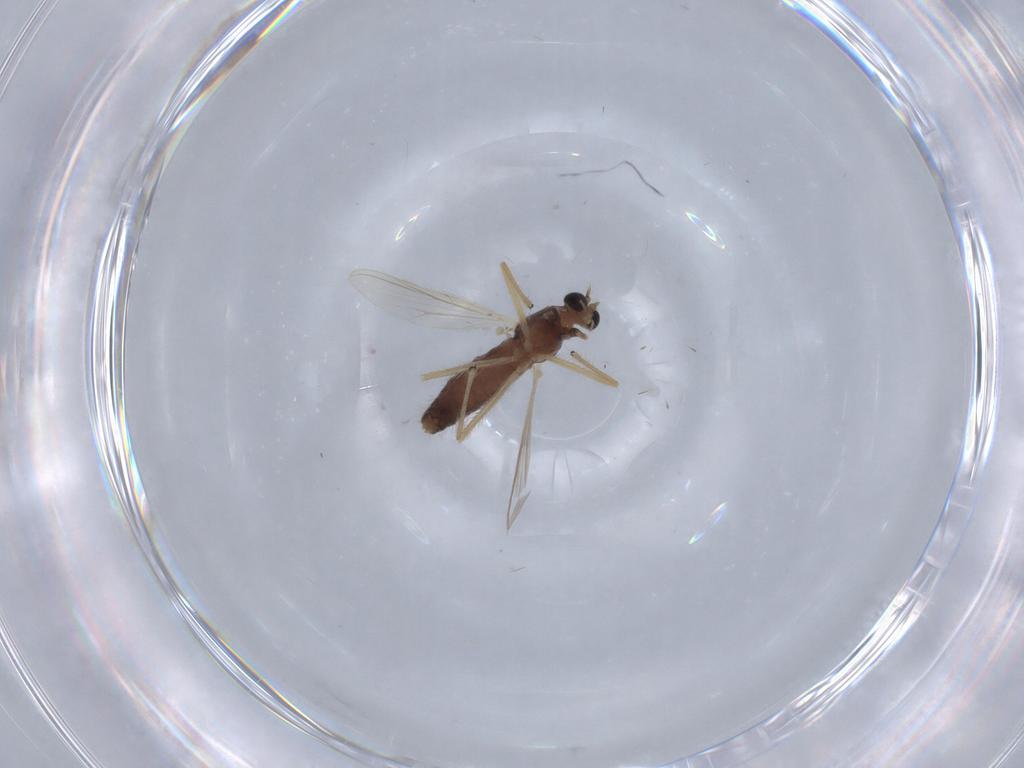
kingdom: Animalia
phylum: Arthropoda
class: Insecta
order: Diptera
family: Chironomidae
